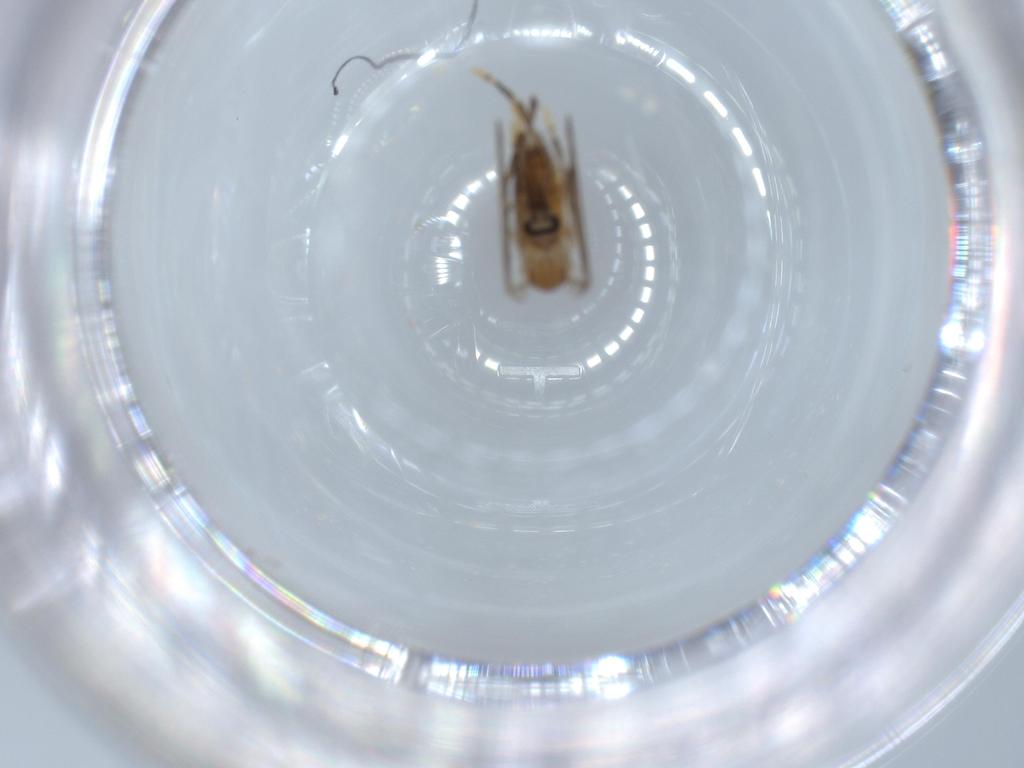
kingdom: Animalia
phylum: Arthropoda
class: Insecta
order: Diptera
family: Psychodidae
